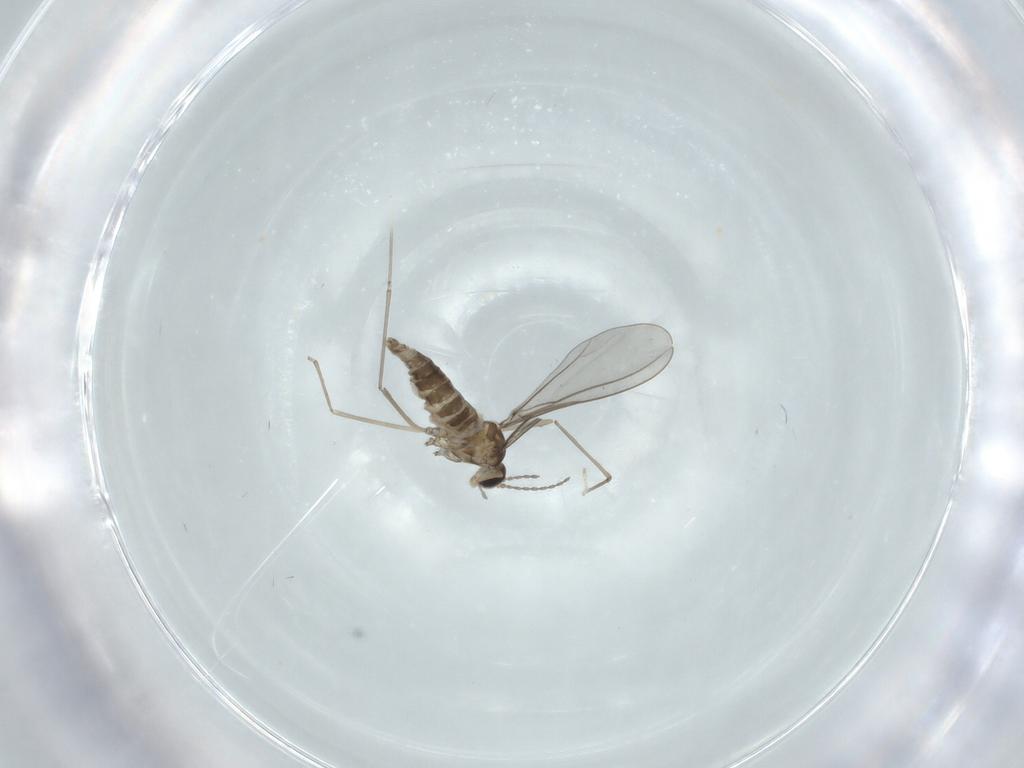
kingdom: Animalia
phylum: Arthropoda
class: Insecta
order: Diptera
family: Cecidomyiidae
